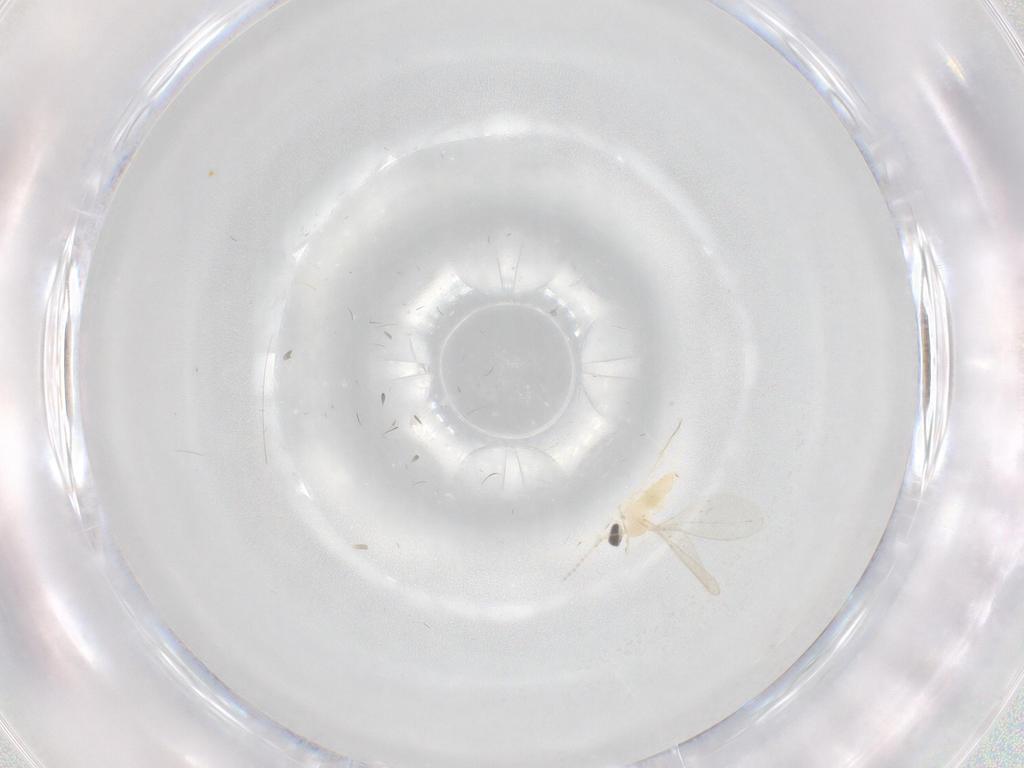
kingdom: Animalia
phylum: Arthropoda
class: Insecta
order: Diptera
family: Cecidomyiidae
